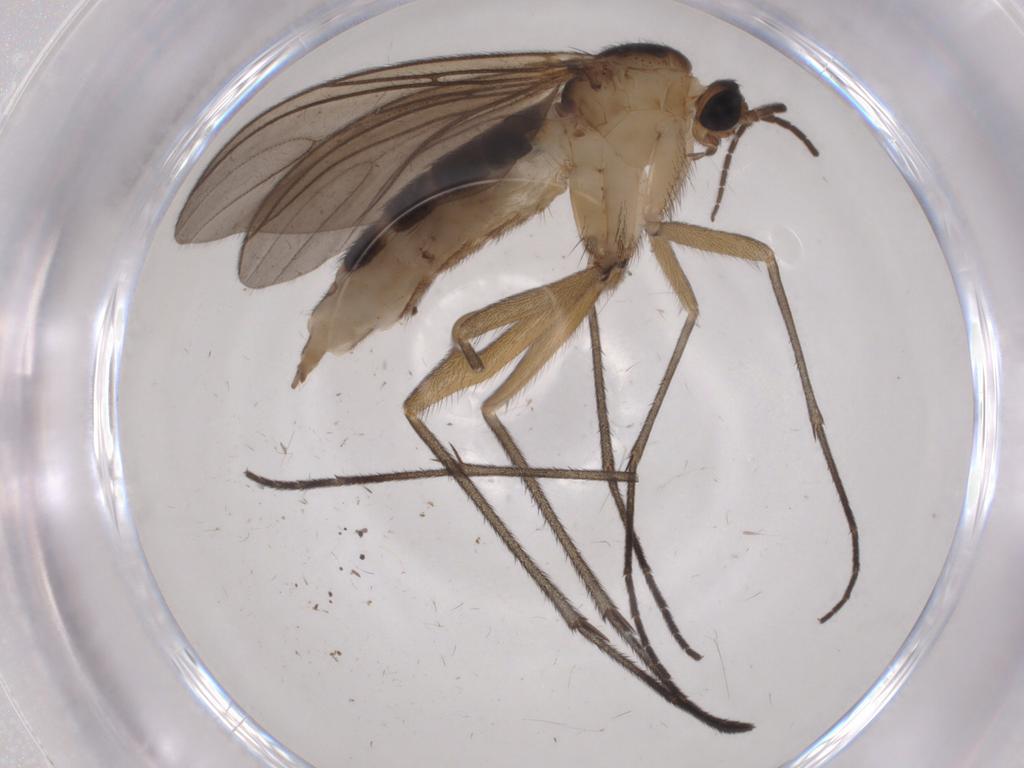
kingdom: Animalia
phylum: Arthropoda
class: Insecta
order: Diptera
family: Sciaridae
